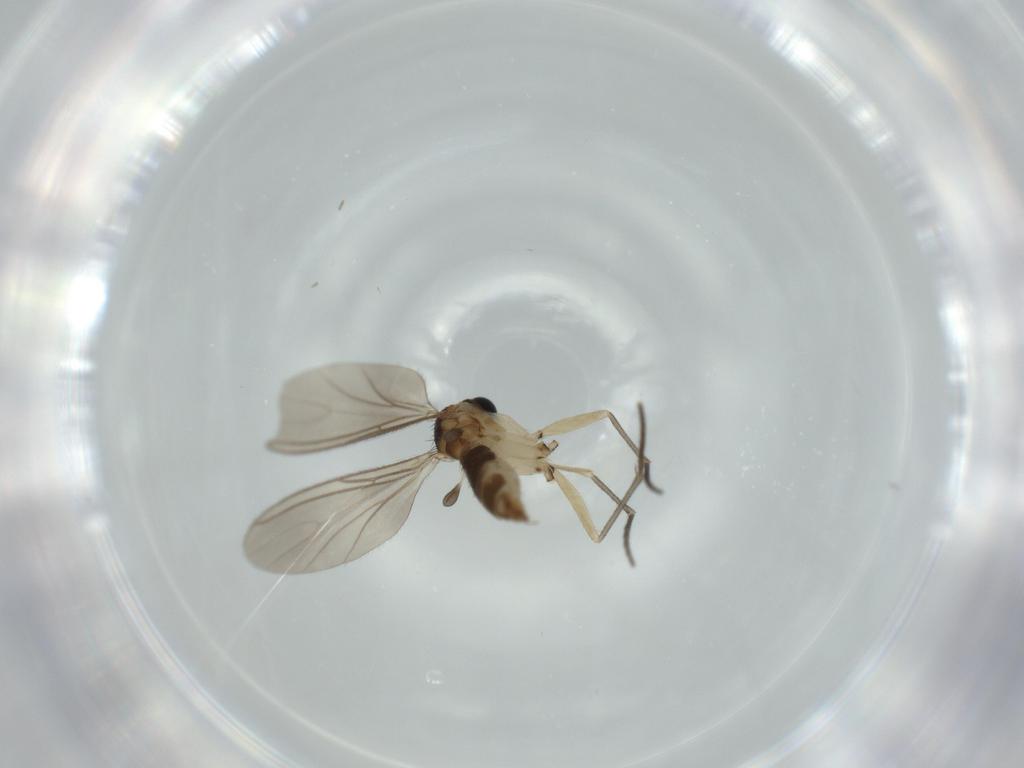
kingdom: Animalia
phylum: Arthropoda
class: Insecta
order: Diptera
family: Sciaridae
